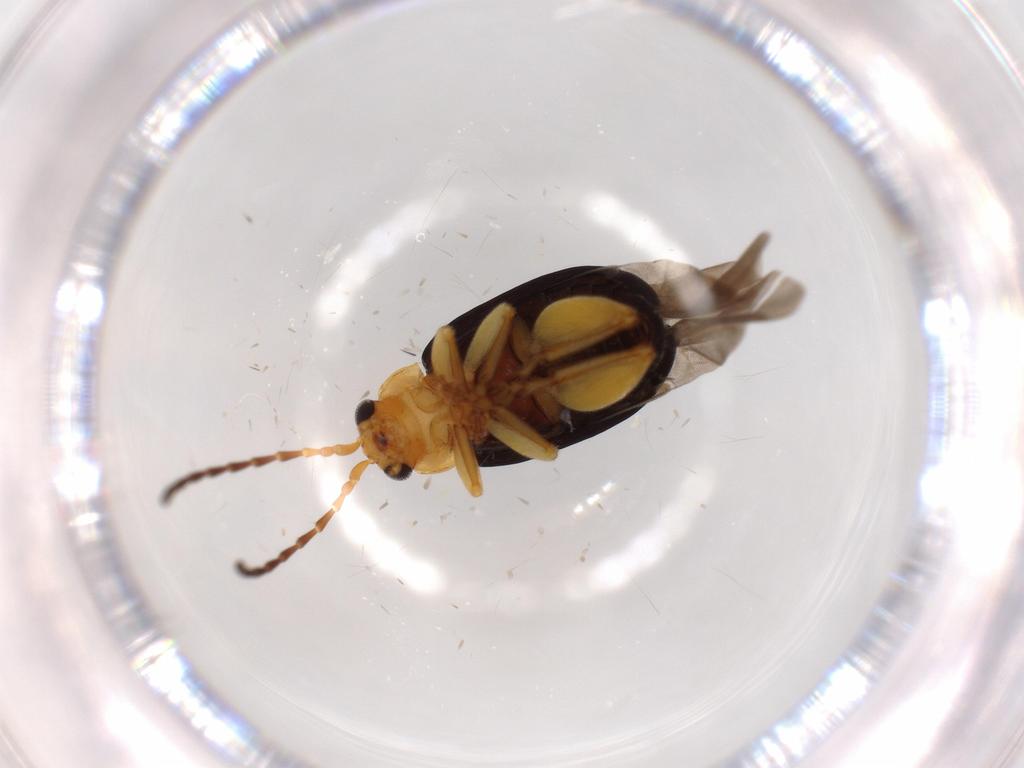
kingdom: Animalia
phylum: Arthropoda
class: Insecta
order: Coleoptera
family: Chrysomelidae
